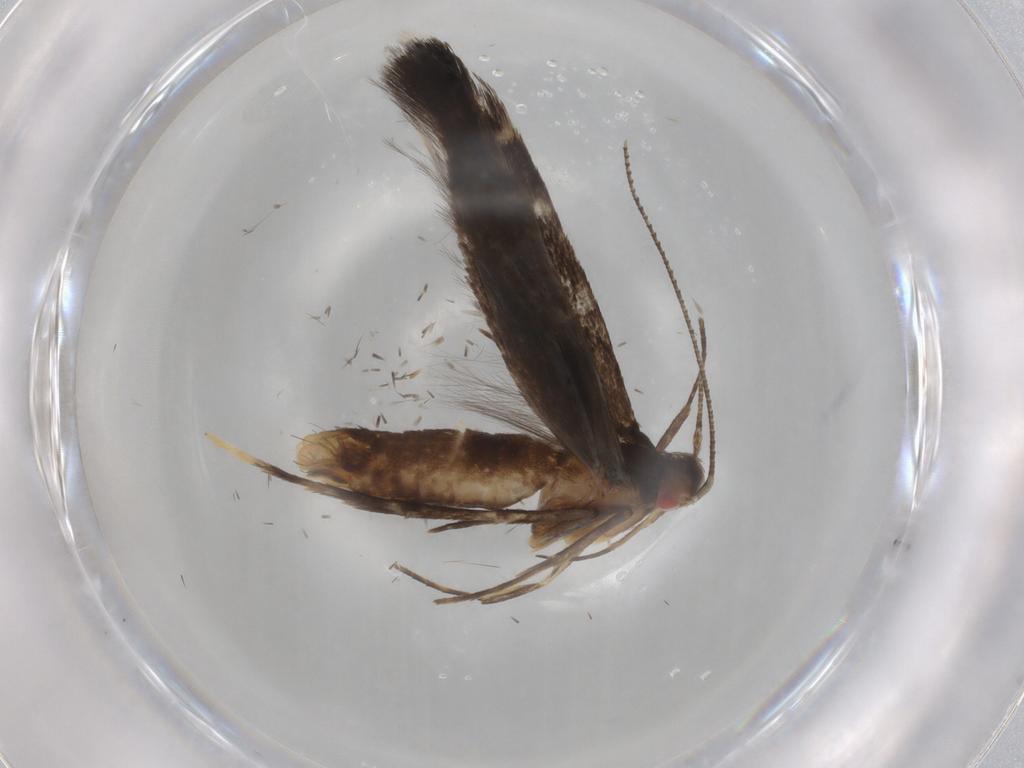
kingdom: Animalia
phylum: Arthropoda
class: Insecta
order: Lepidoptera
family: Cosmopterigidae
